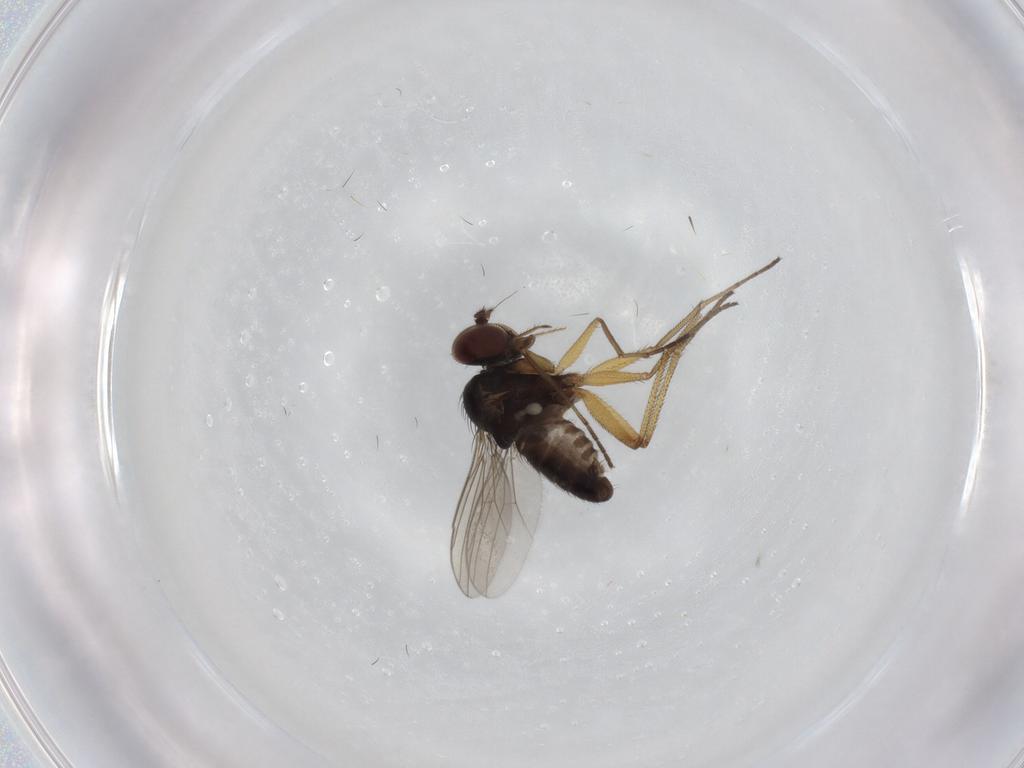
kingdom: Animalia
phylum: Arthropoda
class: Insecta
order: Diptera
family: Dolichopodidae
